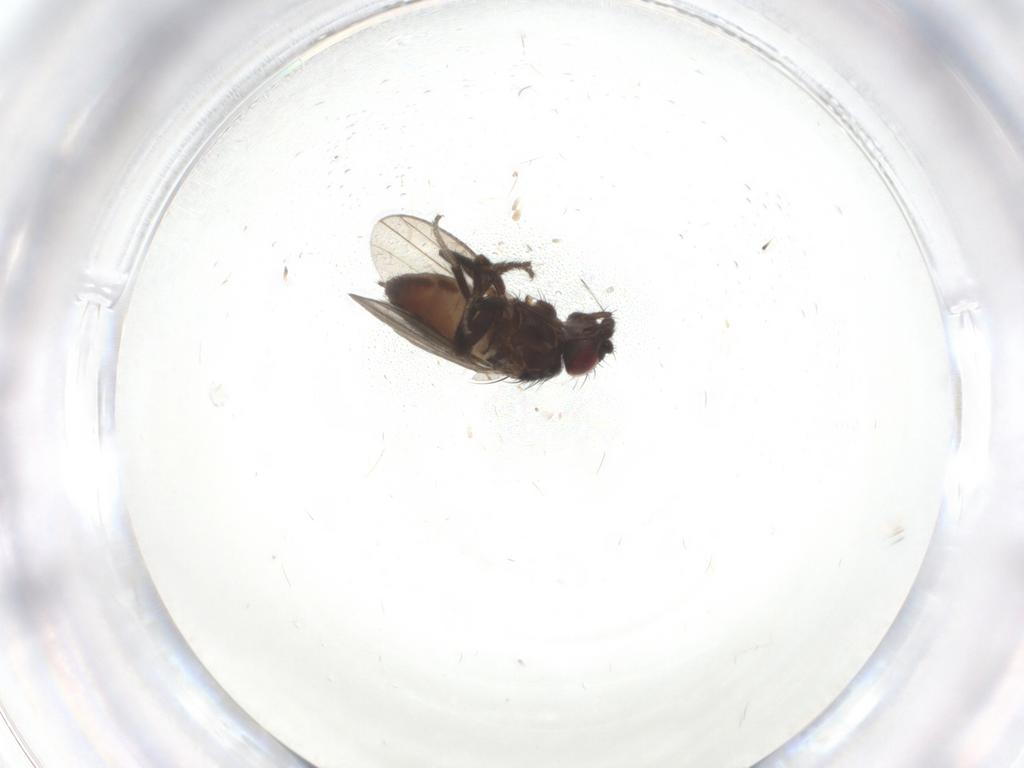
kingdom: Animalia
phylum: Arthropoda
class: Insecta
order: Diptera
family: Milichiidae
